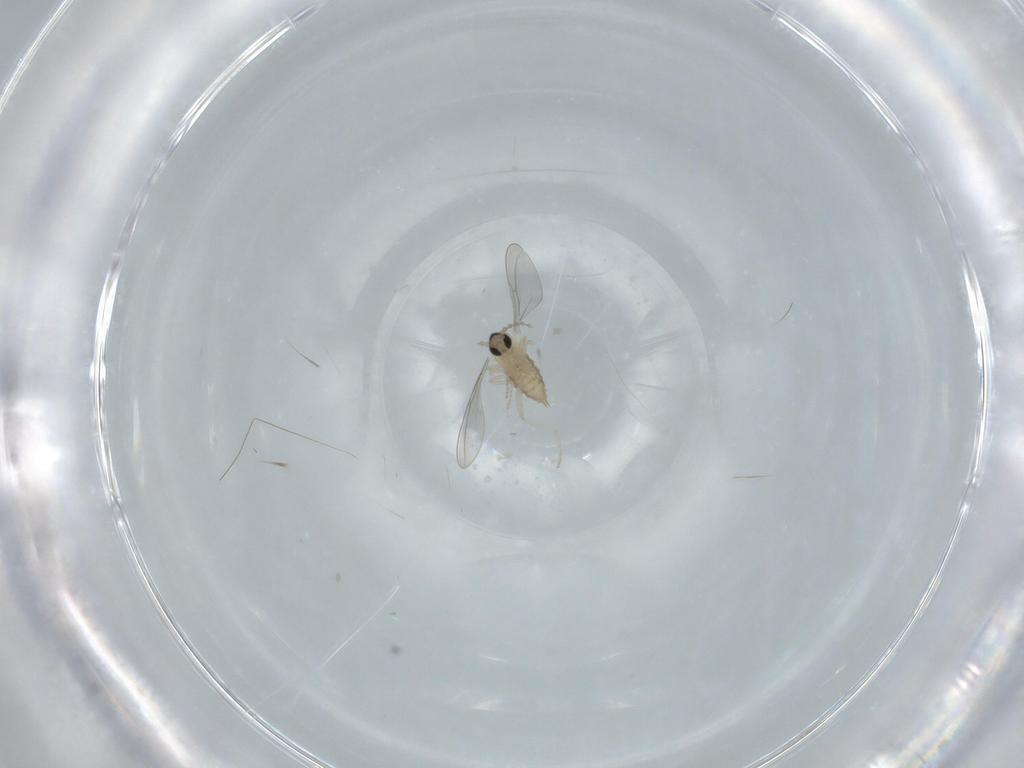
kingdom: Animalia
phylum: Arthropoda
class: Insecta
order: Diptera
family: Cecidomyiidae
